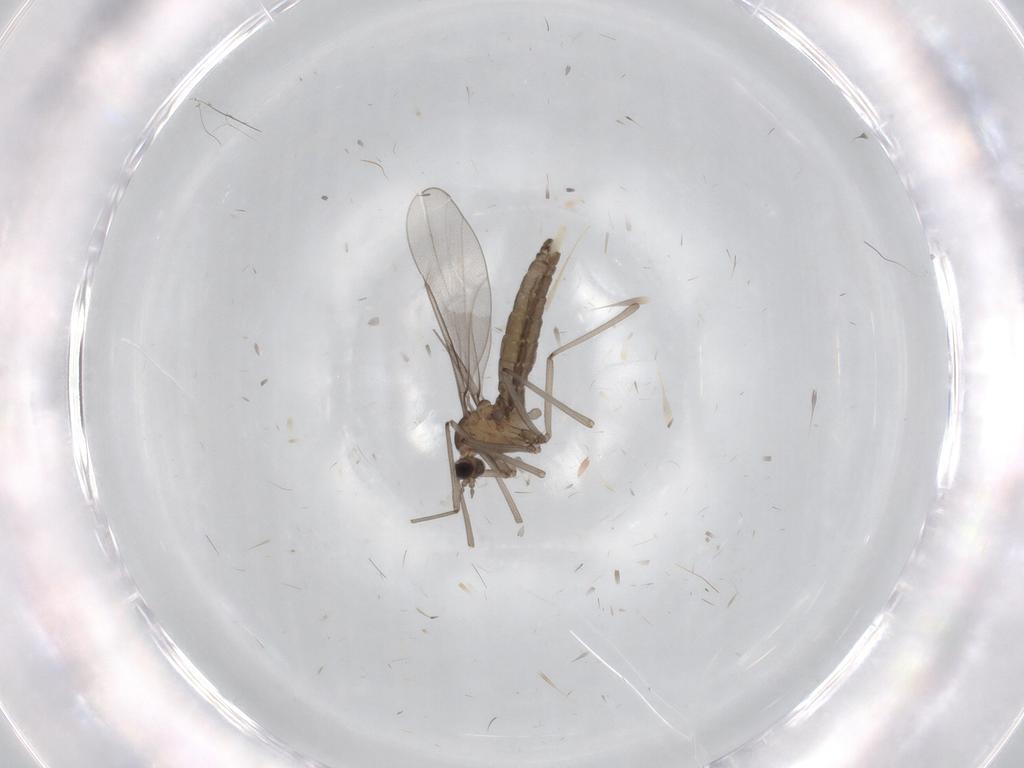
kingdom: Animalia
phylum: Arthropoda
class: Insecta
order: Diptera
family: Cecidomyiidae
